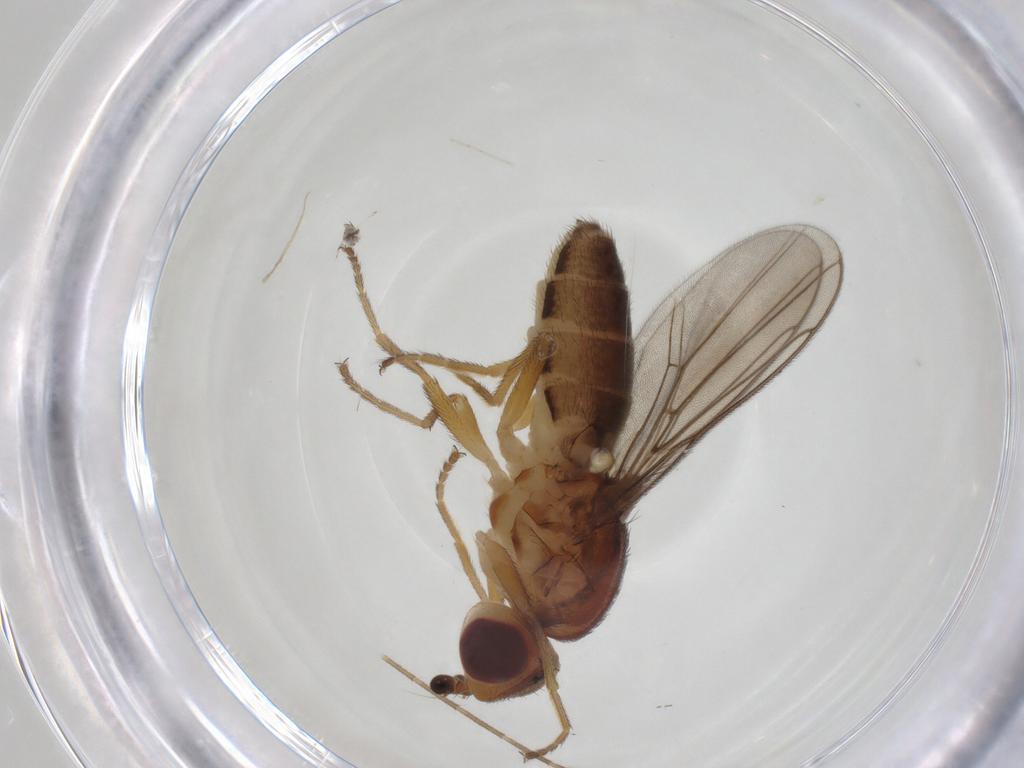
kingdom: Animalia
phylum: Arthropoda
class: Insecta
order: Diptera
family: Chloropidae
